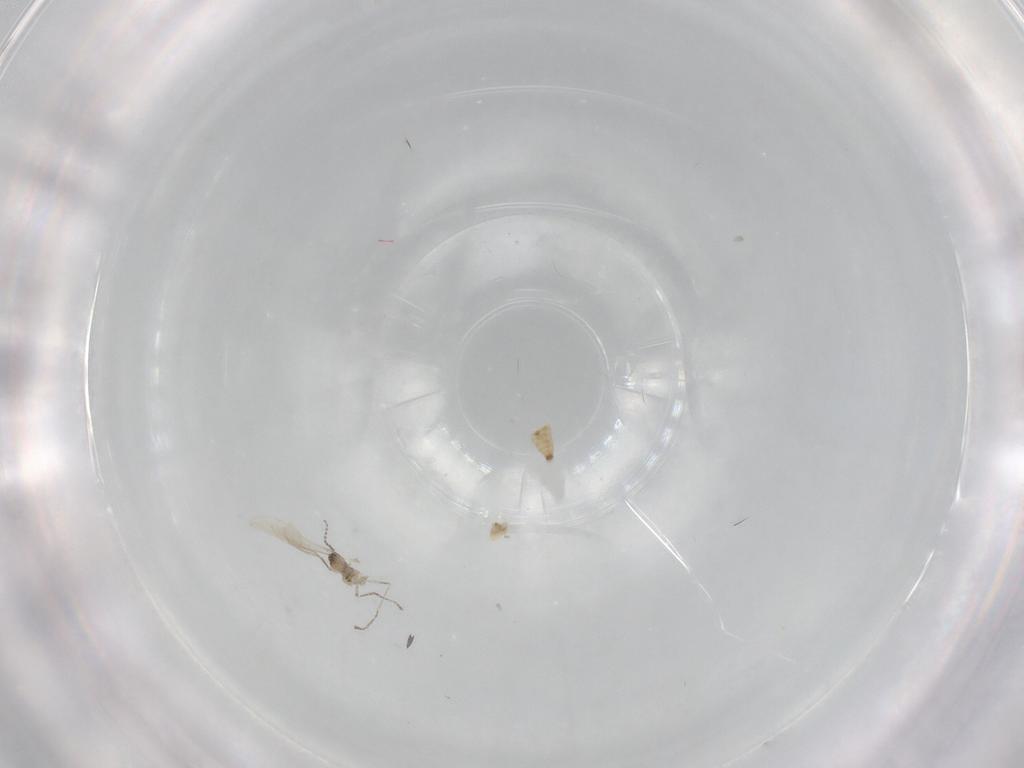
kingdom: Animalia
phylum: Arthropoda
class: Insecta
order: Diptera
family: Cecidomyiidae
